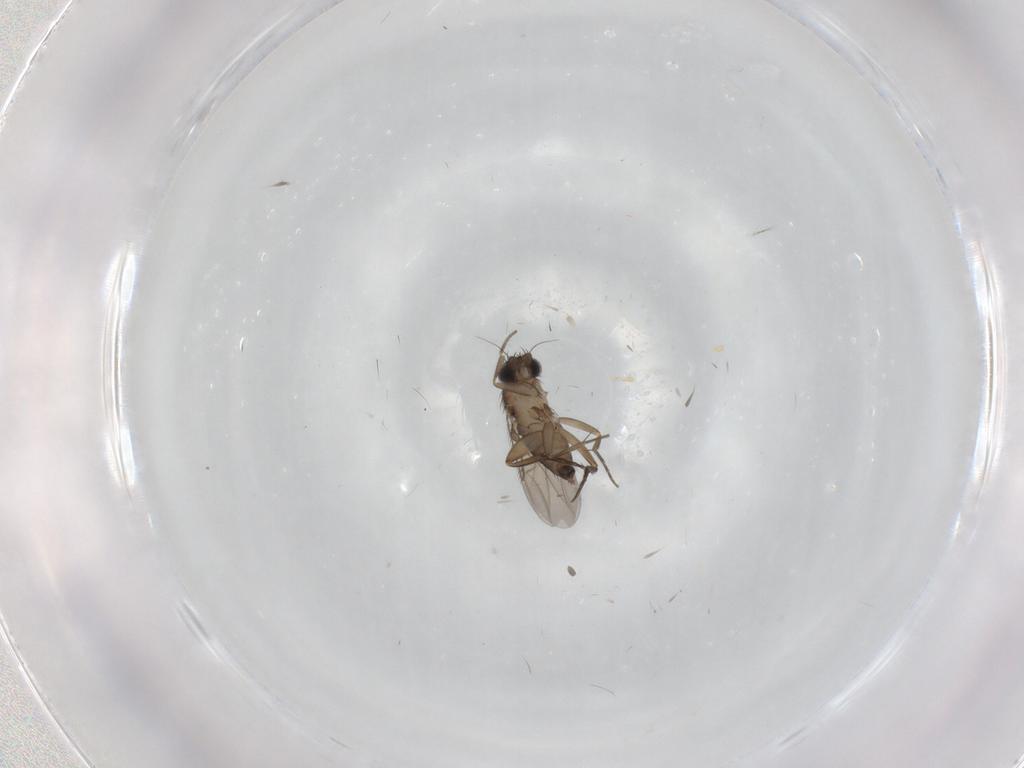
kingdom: Animalia
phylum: Arthropoda
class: Insecta
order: Diptera
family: Phoridae
